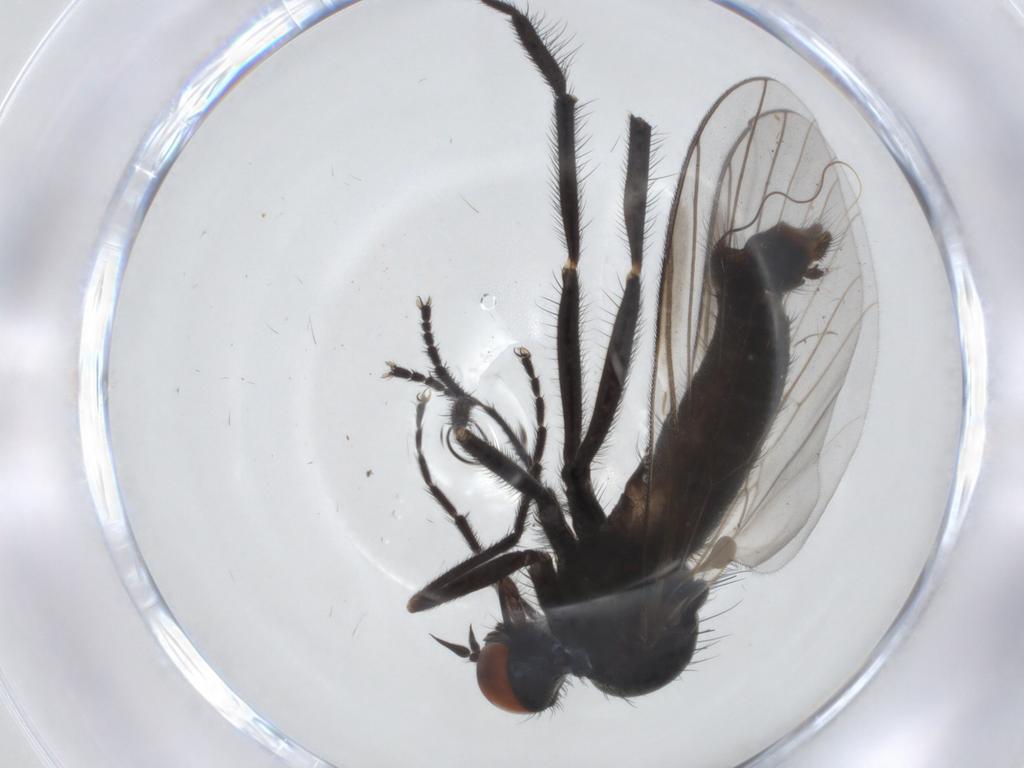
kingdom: Animalia
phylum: Arthropoda
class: Insecta
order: Diptera
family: Empididae
